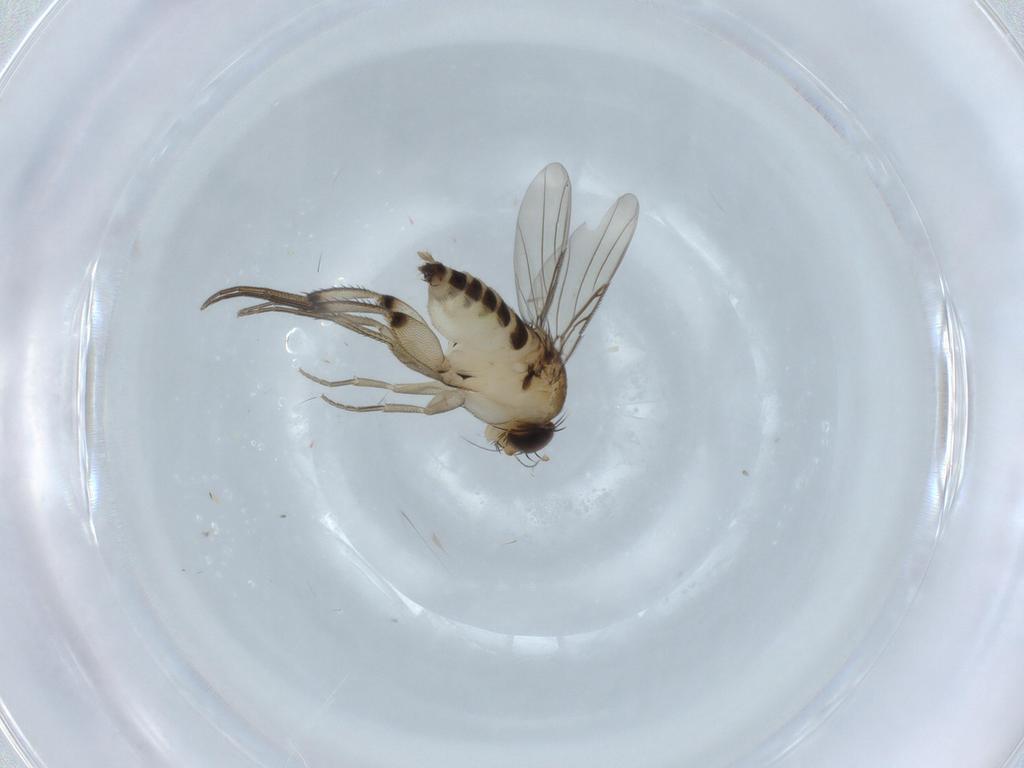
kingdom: Animalia
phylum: Arthropoda
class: Insecta
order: Diptera
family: Phoridae
